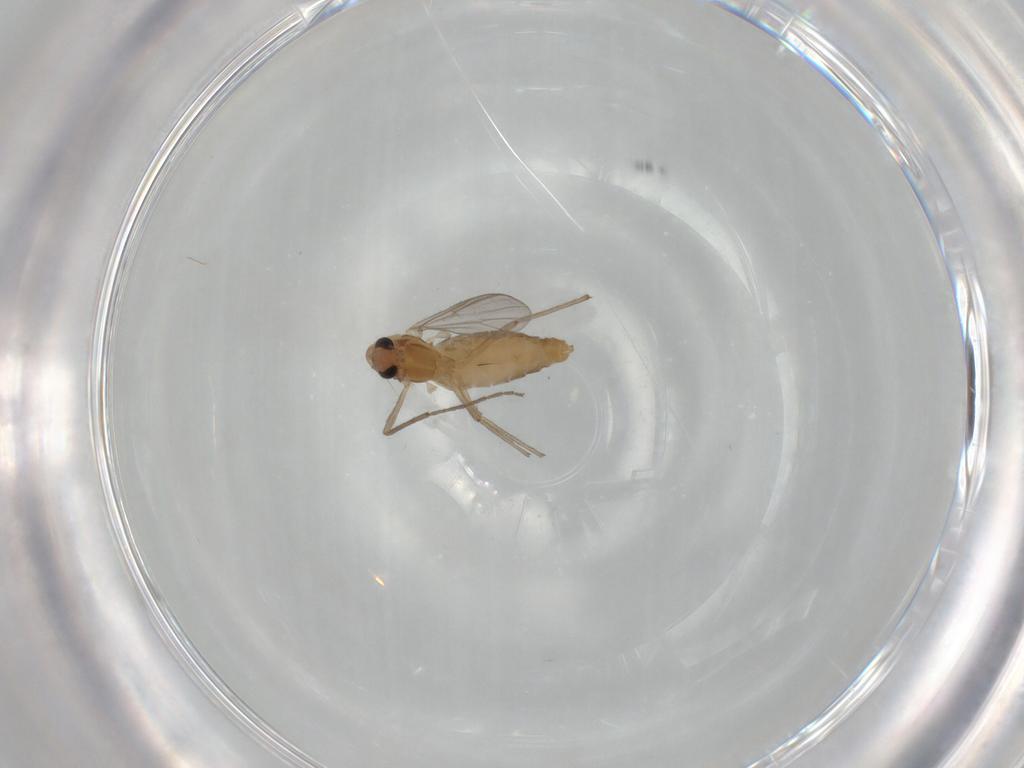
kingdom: Animalia
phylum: Arthropoda
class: Insecta
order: Diptera
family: Chironomidae
